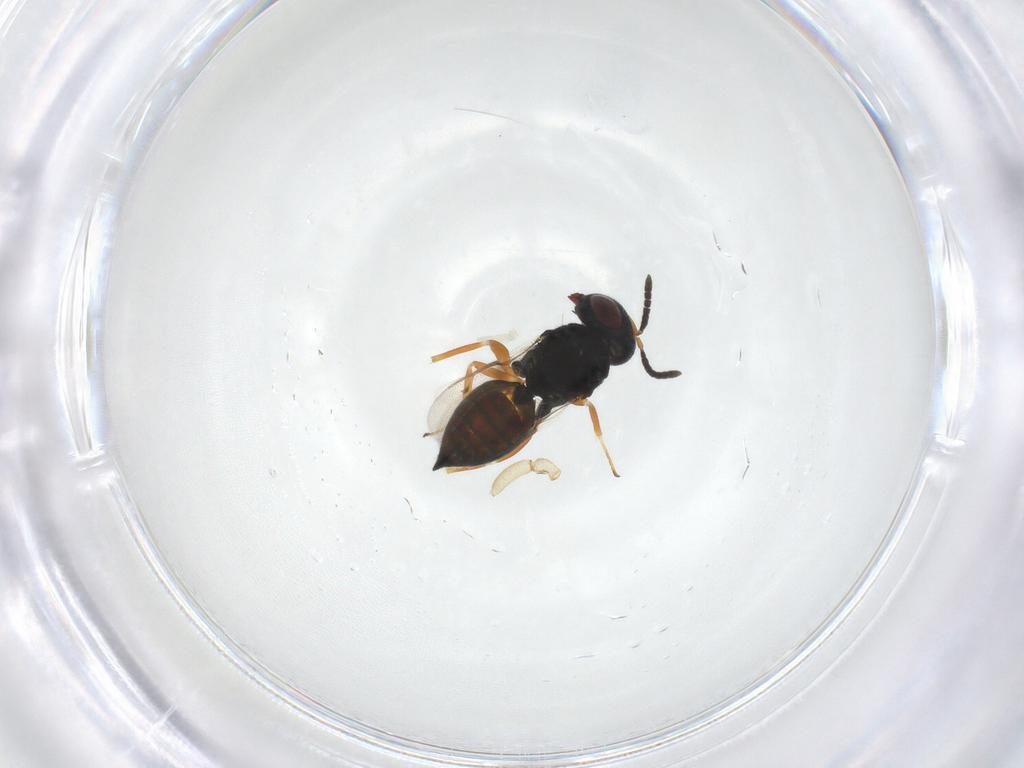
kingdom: Animalia
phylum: Arthropoda
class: Insecta
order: Hymenoptera
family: Pteromalidae
